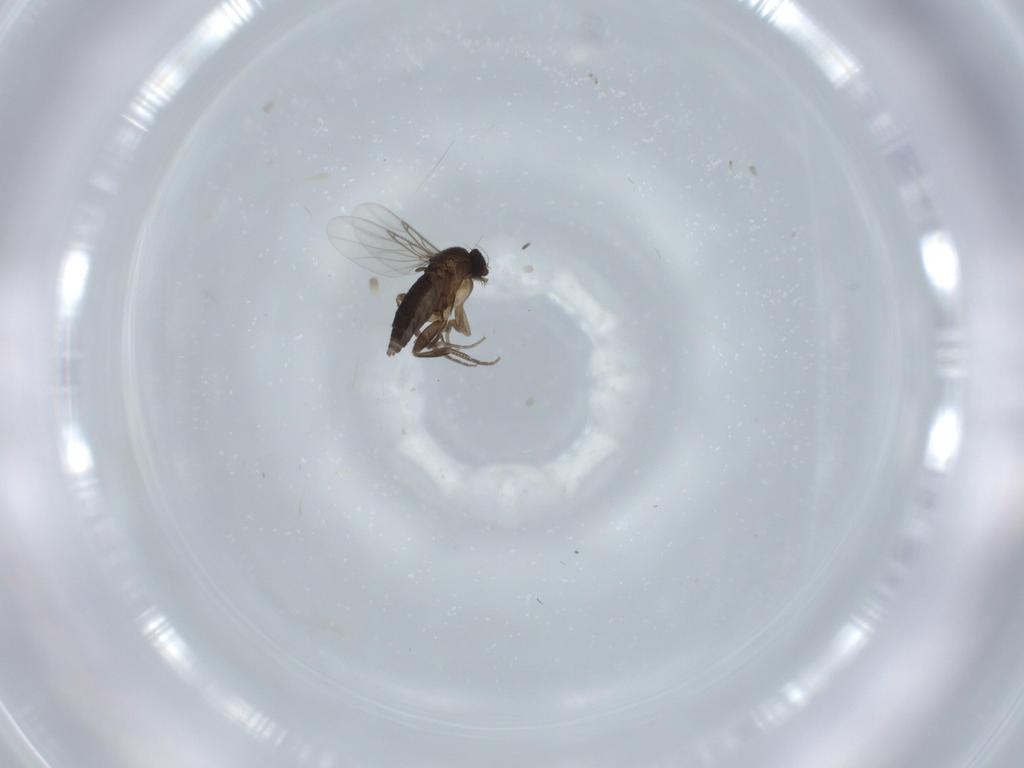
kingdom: Animalia
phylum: Arthropoda
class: Insecta
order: Diptera
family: Phoridae
